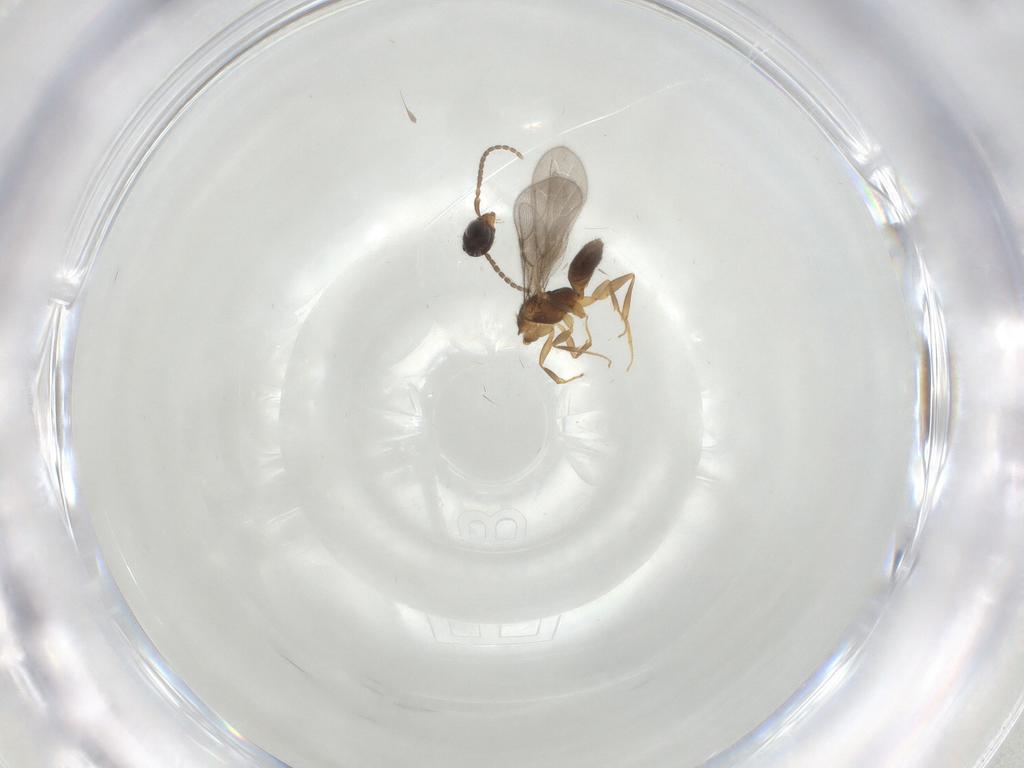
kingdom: Animalia
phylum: Arthropoda
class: Insecta
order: Hymenoptera
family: Bethylidae
